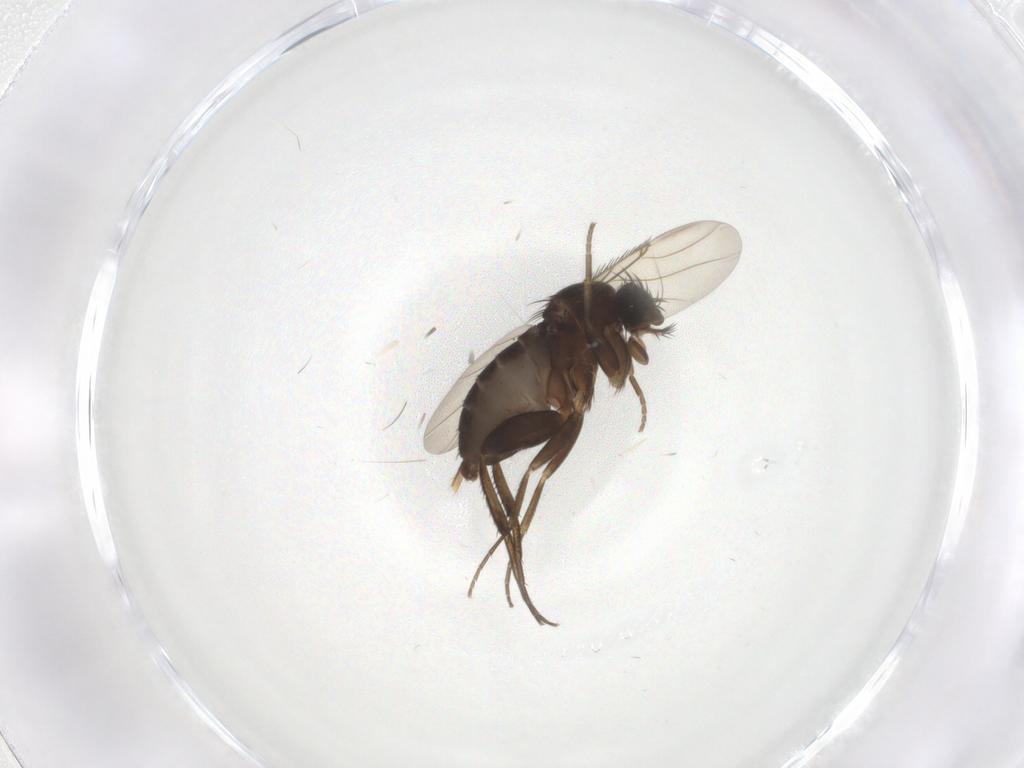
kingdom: Animalia
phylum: Arthropoda
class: Insecta
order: Diptera
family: Phoridae
